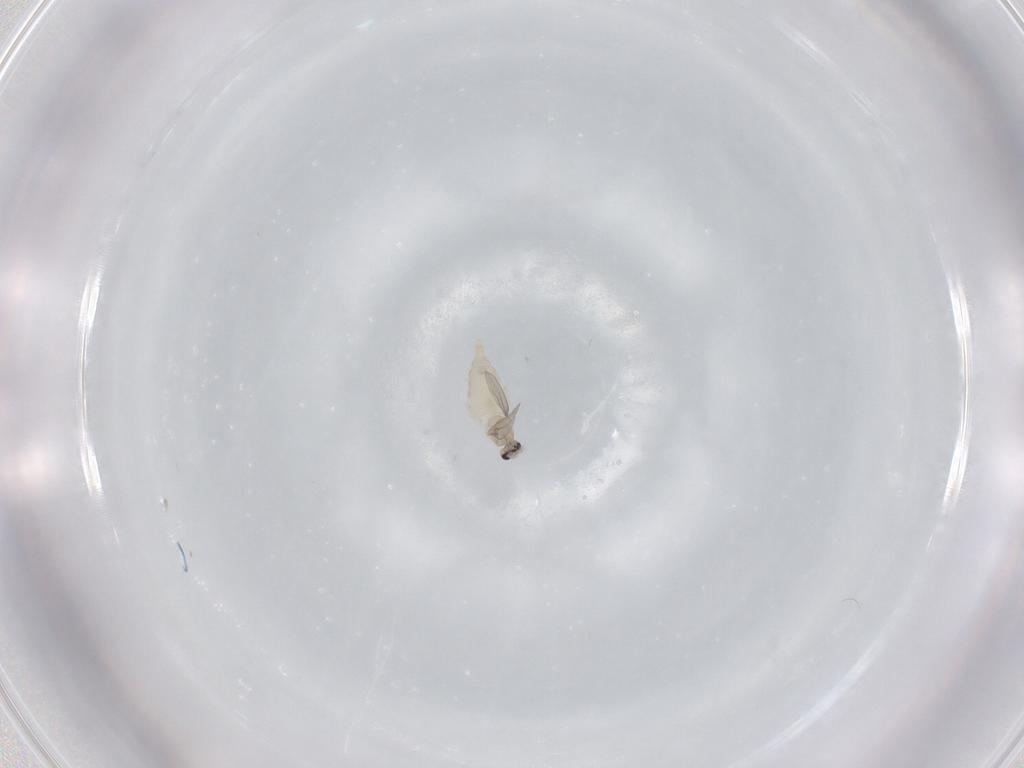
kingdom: Animalia
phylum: Arthropoda
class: Insecta
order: Diptera
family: Cecidomyiidae
